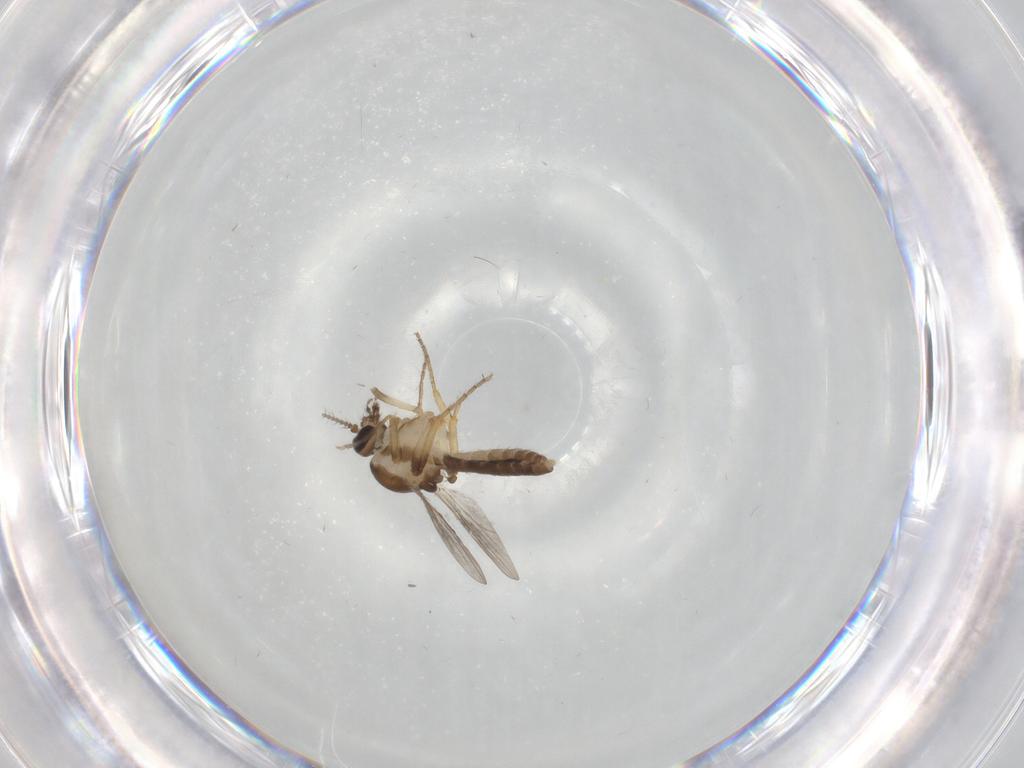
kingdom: Animalia
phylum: Arthropoda
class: Insecta
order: Diptera
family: Ceratopogonidae
